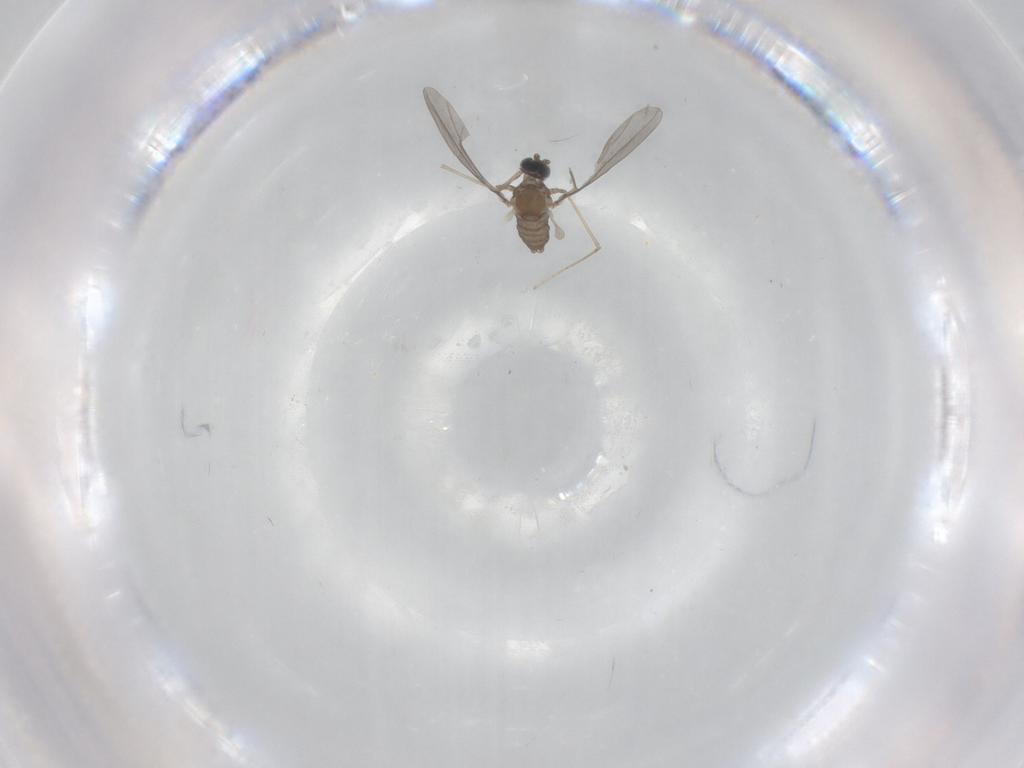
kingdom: Animalia
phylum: Arthropoda
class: Insecta
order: Diptera
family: Cecidomyiidae
